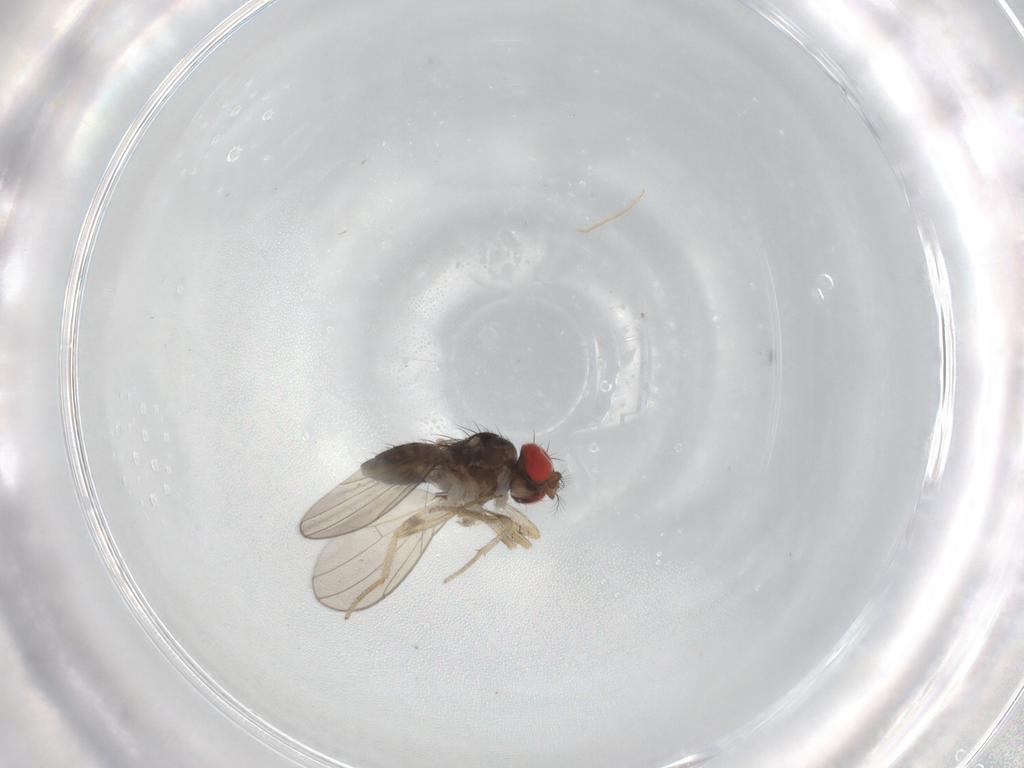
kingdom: Animalia
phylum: Arthropoda
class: Insecta
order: Diptera
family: Drosophilidae
